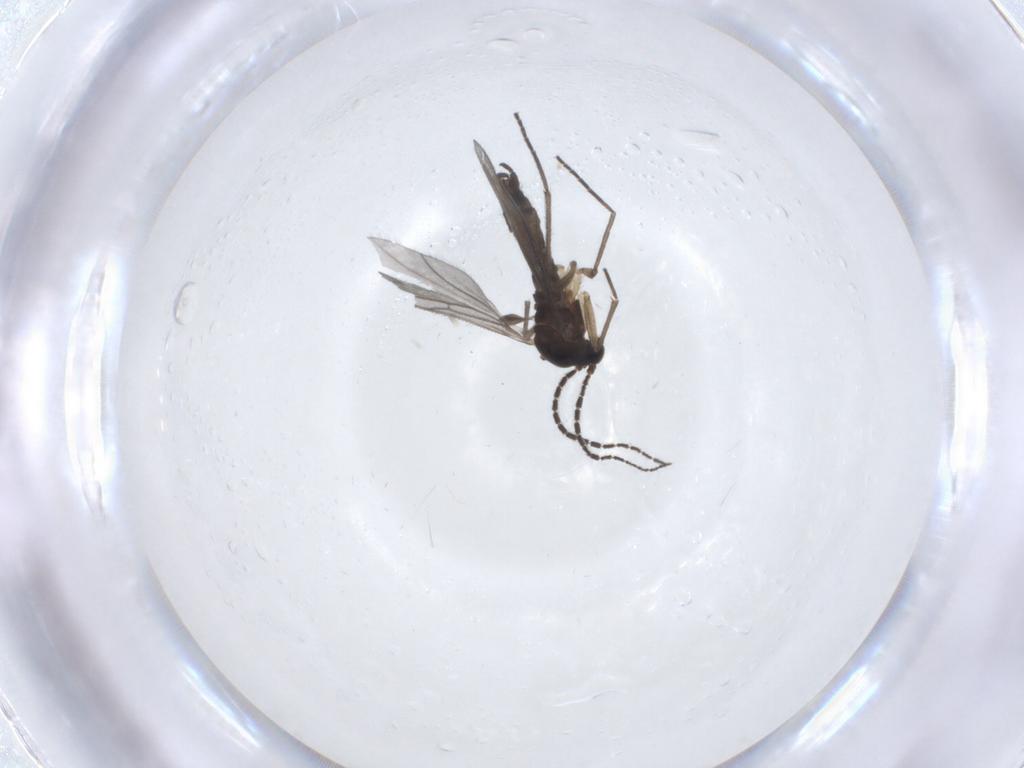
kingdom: Animalia
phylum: Arthropoda
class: Insecta
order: Diptera
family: Sciaridae
